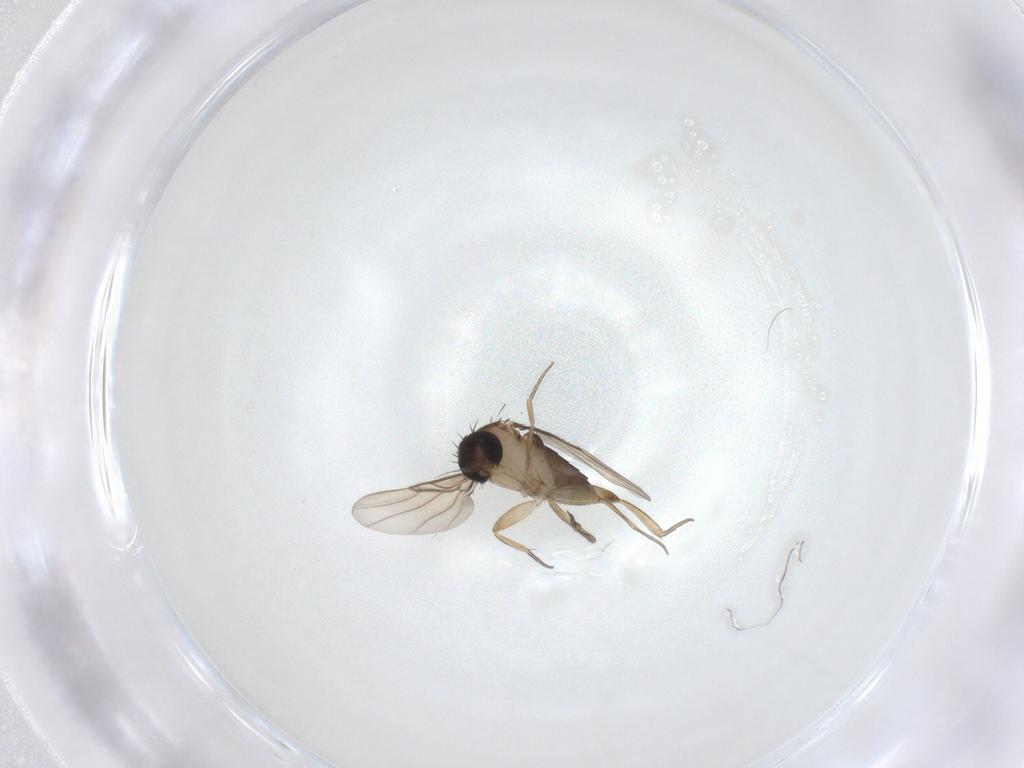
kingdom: Animalia
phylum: Arthropoda
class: Insecta
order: Diptera
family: Phoridae
